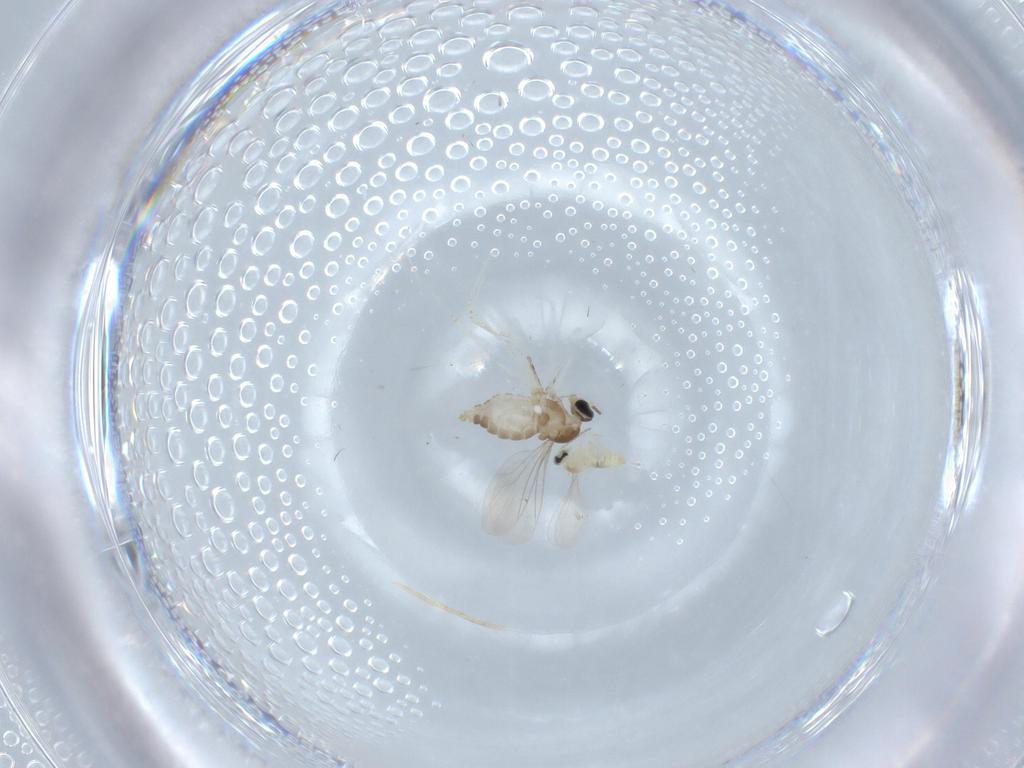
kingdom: Animalia
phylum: Arthropoda
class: Insecta
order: Diptera
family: Cecidomyiidae
